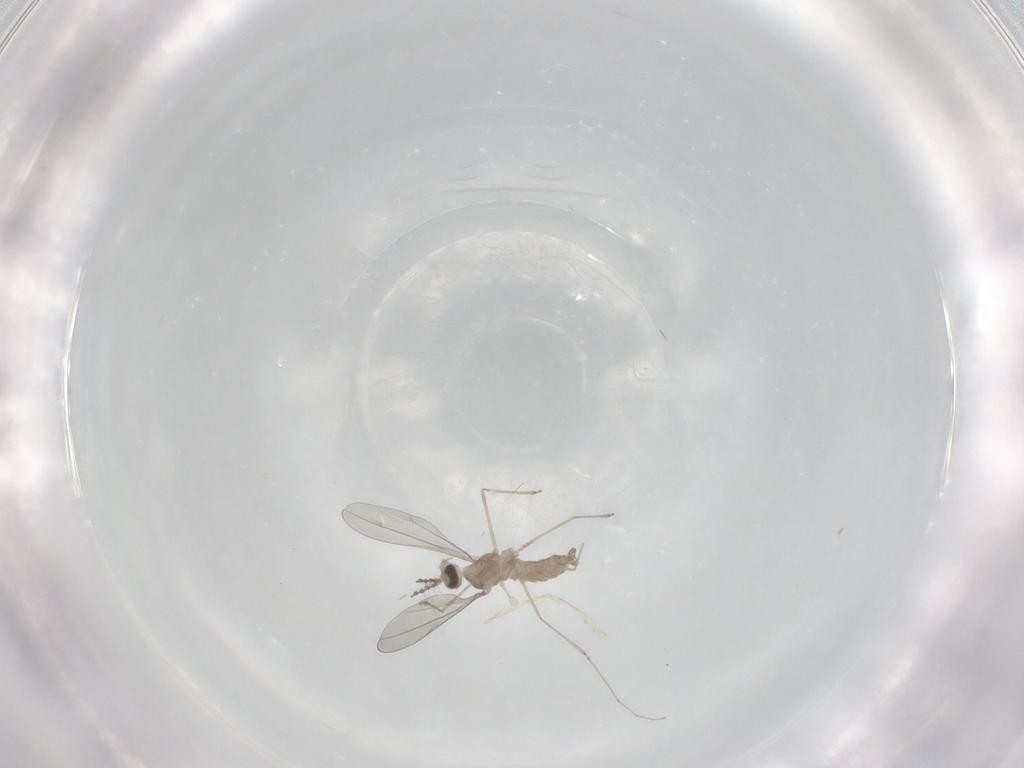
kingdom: Animalia
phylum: Arthropoda
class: Insecta
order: Diptera
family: Cecidomyiidae
